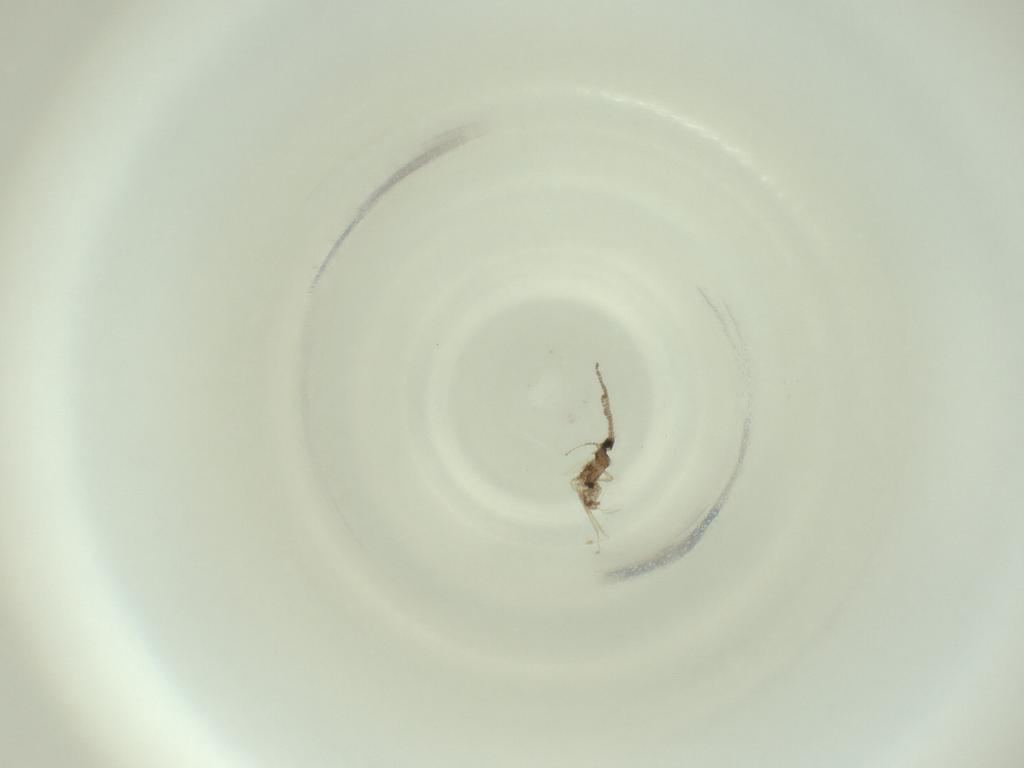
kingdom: Animalia
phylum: Arthropoda
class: Insecta
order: Diptera
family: Cecidomyiidae
